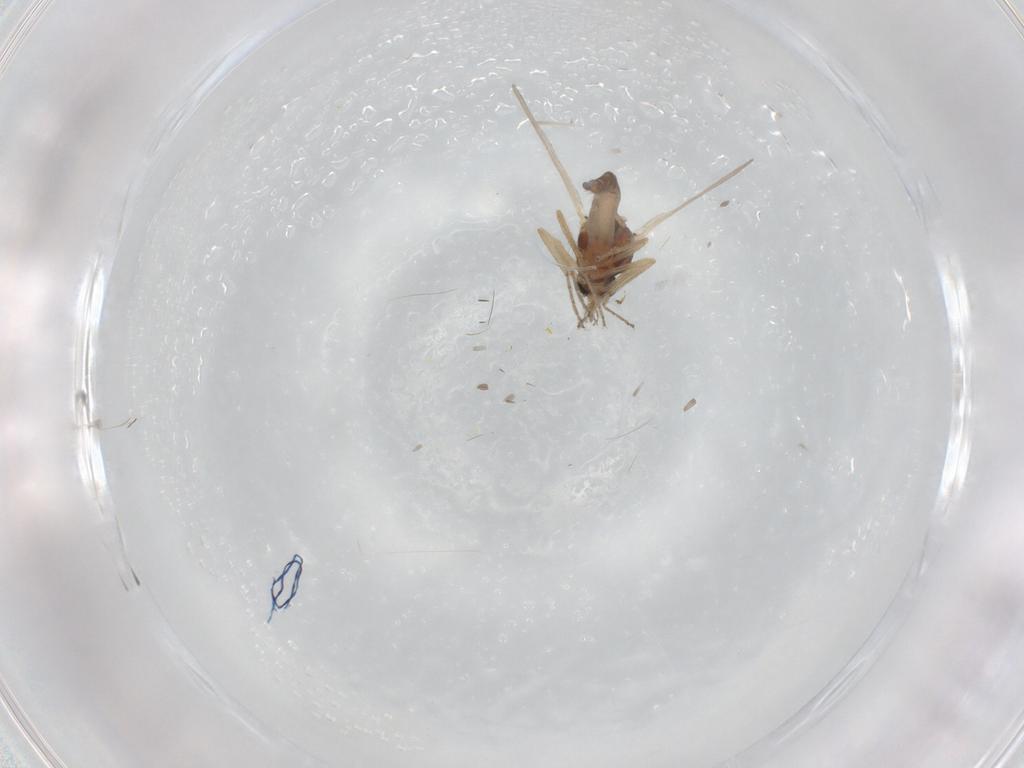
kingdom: Animalia
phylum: Arthropoda
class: Insecta
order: Diptera
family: Ceratopogonidae
